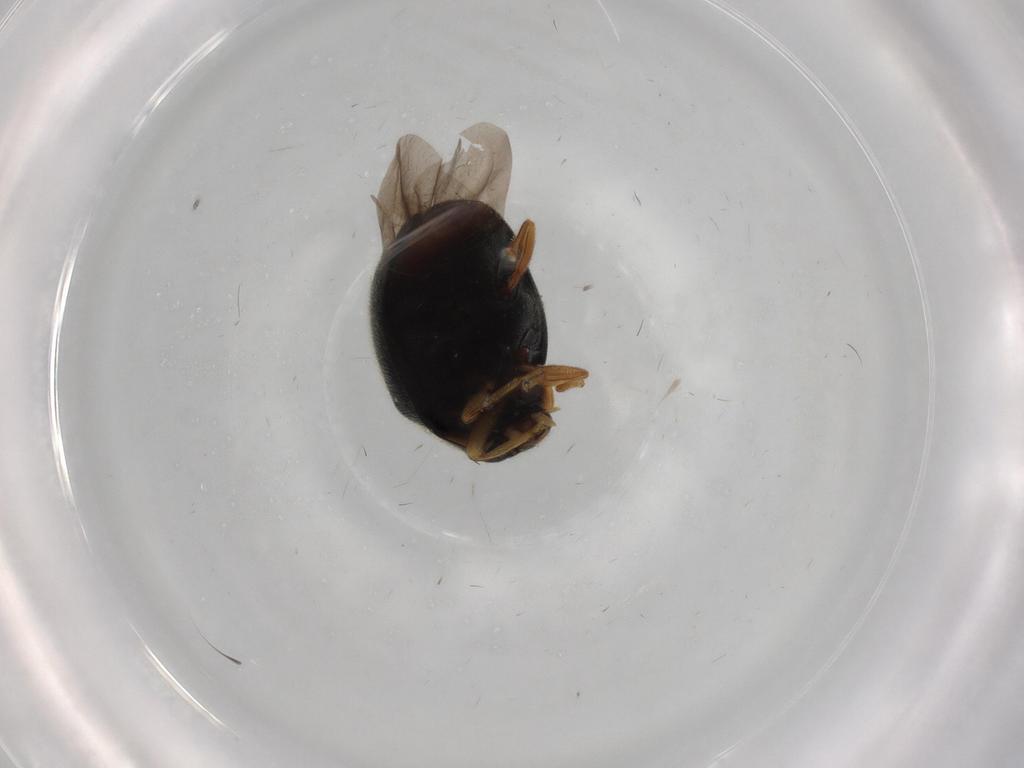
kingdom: Animalia
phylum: Arthropoda
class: Insecta
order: Coleoptera
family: Coccinellidae
